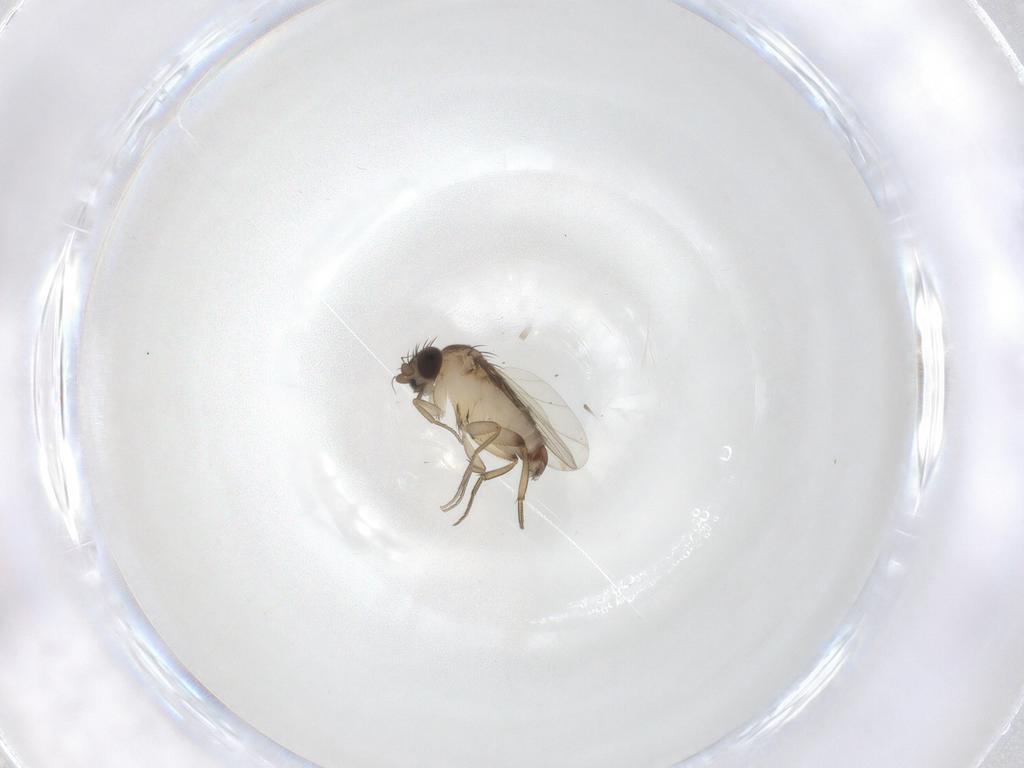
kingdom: Animalia
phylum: Arthropoda
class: Insecta
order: Diptera
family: Phoridae
